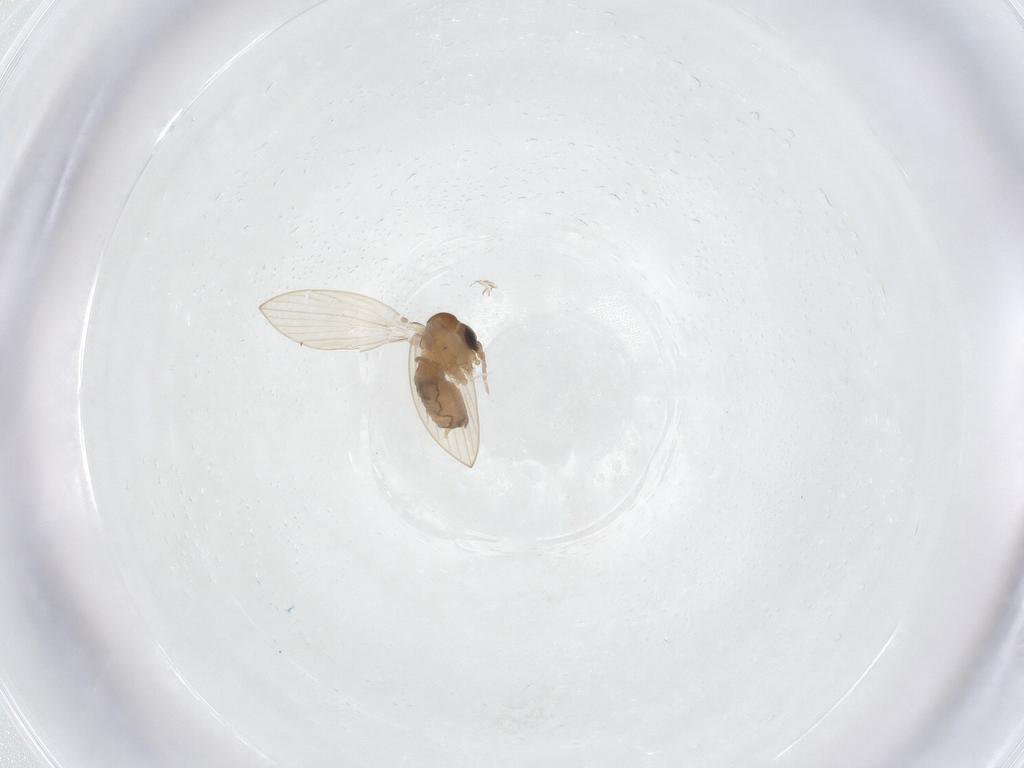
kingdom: Animalia
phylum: Arthropoda
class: Insecta
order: Diptera
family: Psychodidae
